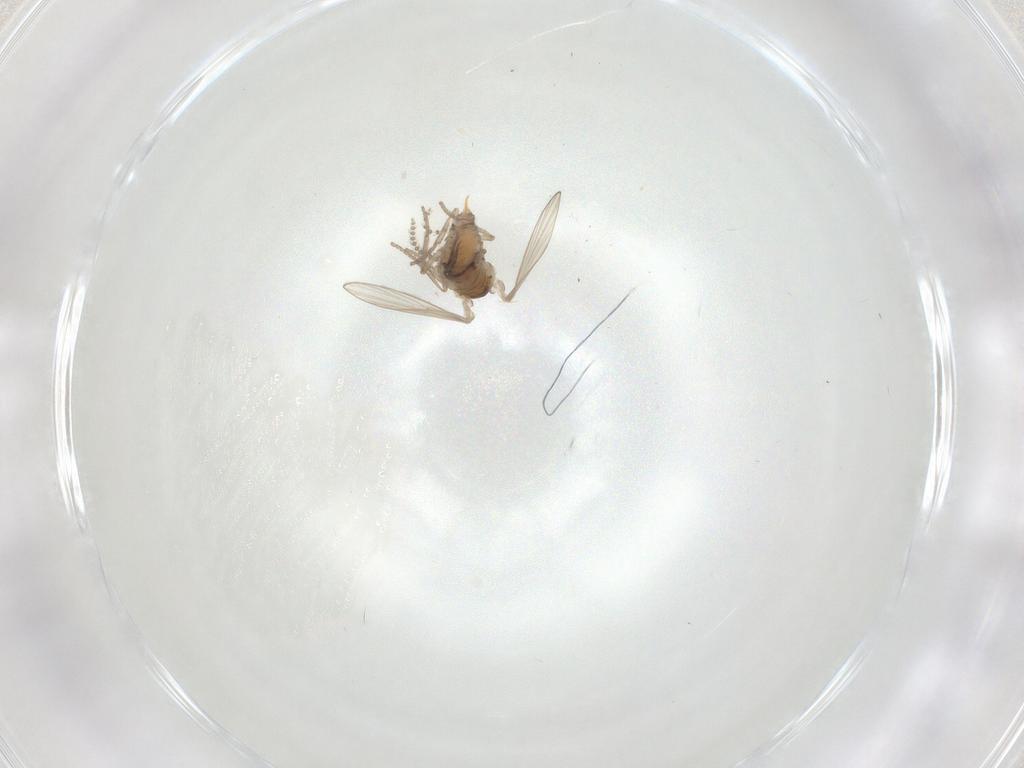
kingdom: Animalia
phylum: Arthropoda
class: Insecta
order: Diptera
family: Psychodidae
